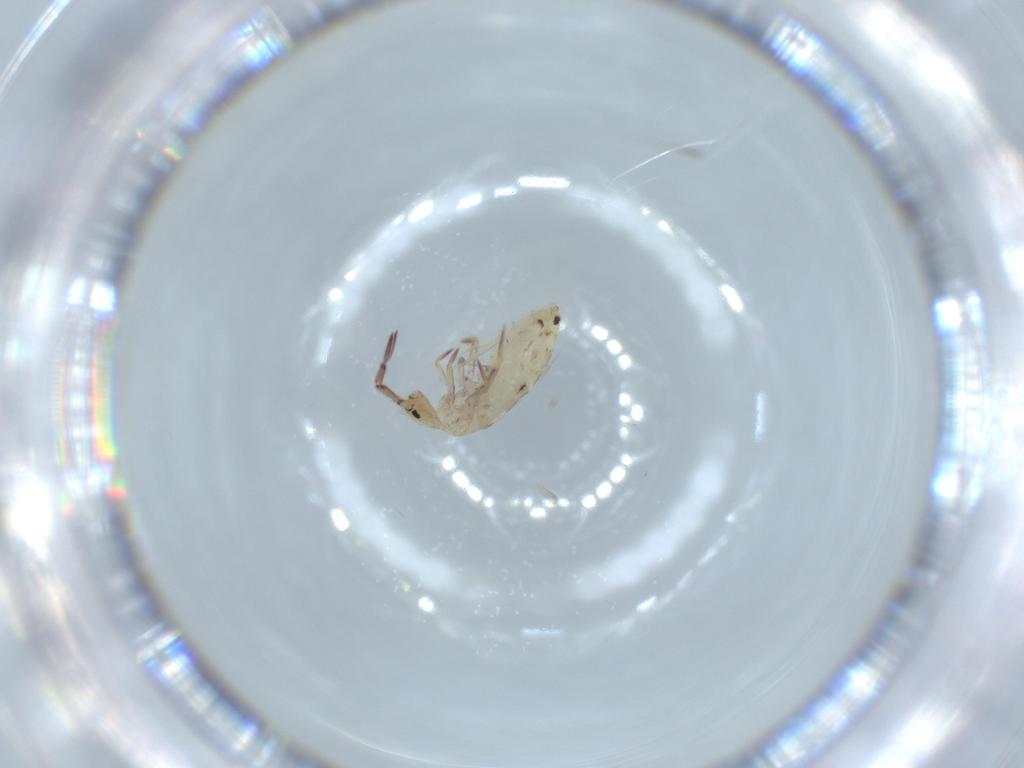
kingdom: Animalia
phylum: Arthropoda
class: Collembola
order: Entomobryomorpha
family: Entomobryidae
